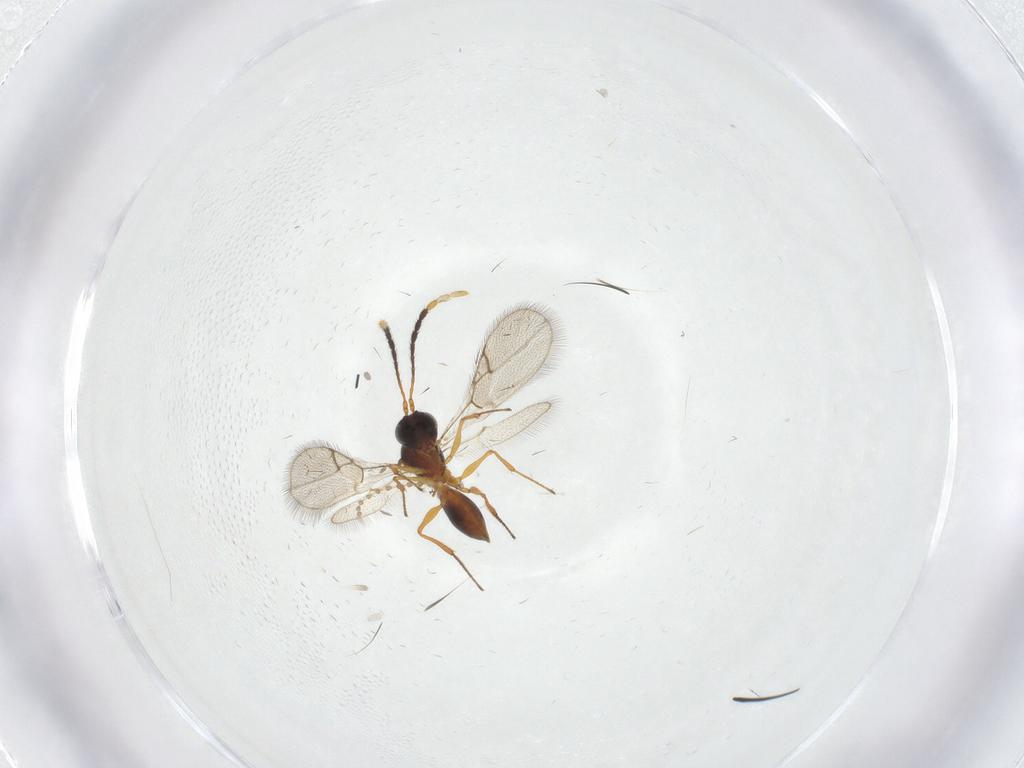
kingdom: Animalia
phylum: Arthropoda
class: Insecta
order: Hymenoptera
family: Figitidae
